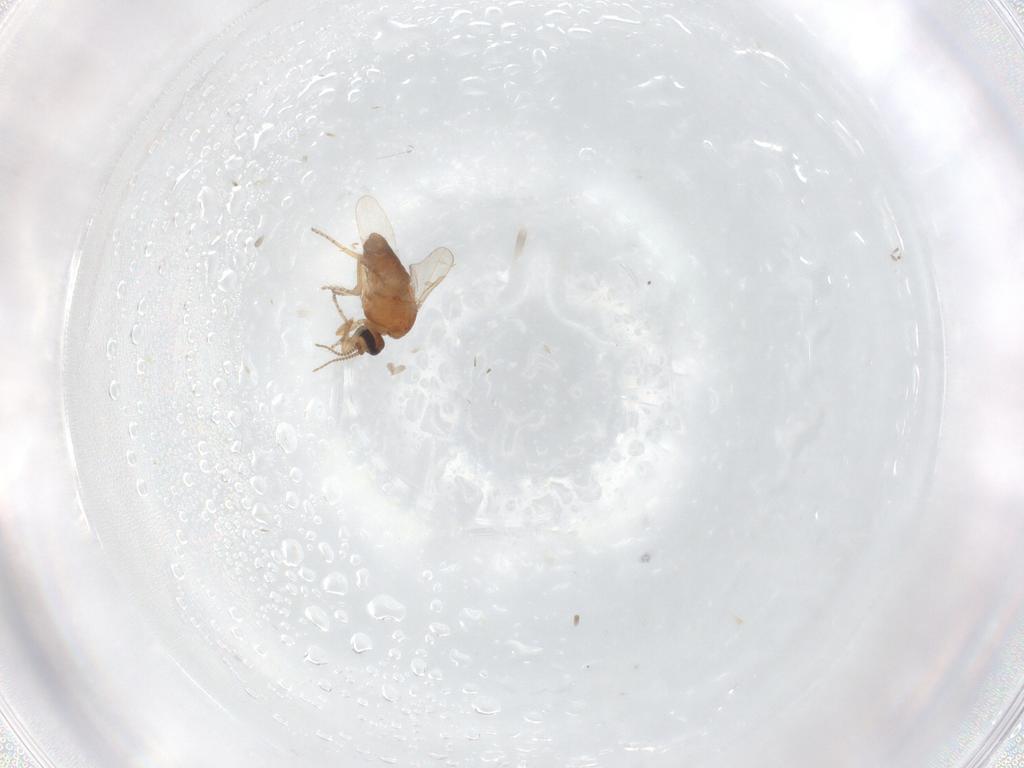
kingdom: Animalia
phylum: Arthropoda
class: Insecta
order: Diptera
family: Ceratopogonidae
